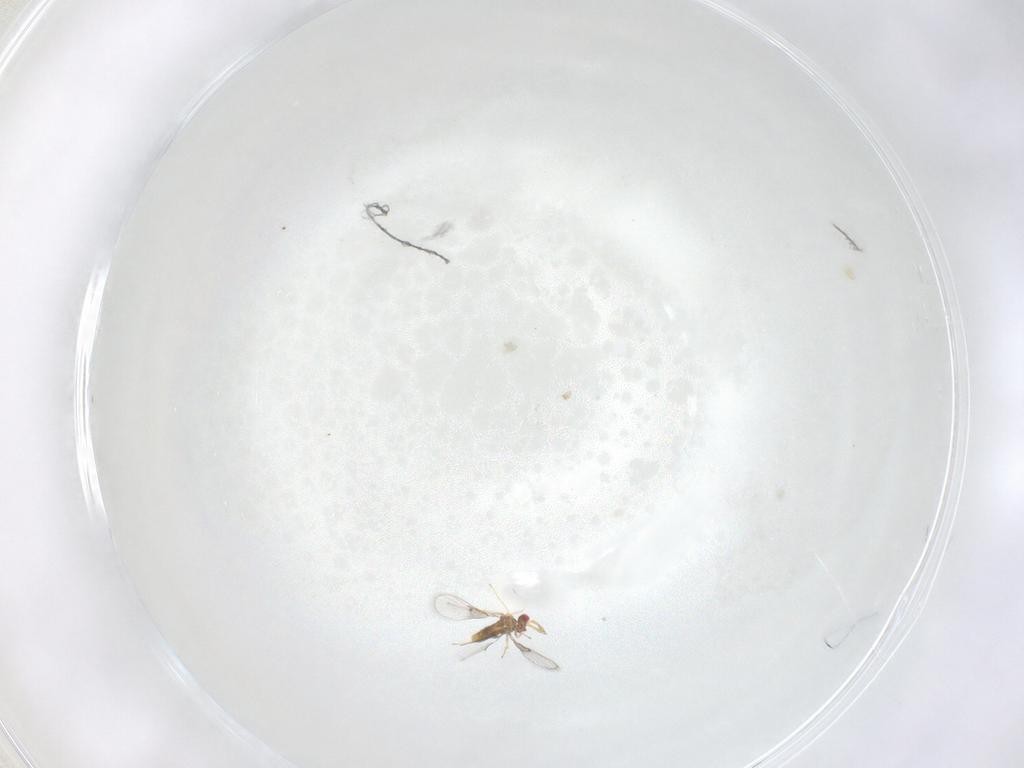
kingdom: Animalia
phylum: Arthropoda
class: Insecta
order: Diptera
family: Cecidomyiidae
